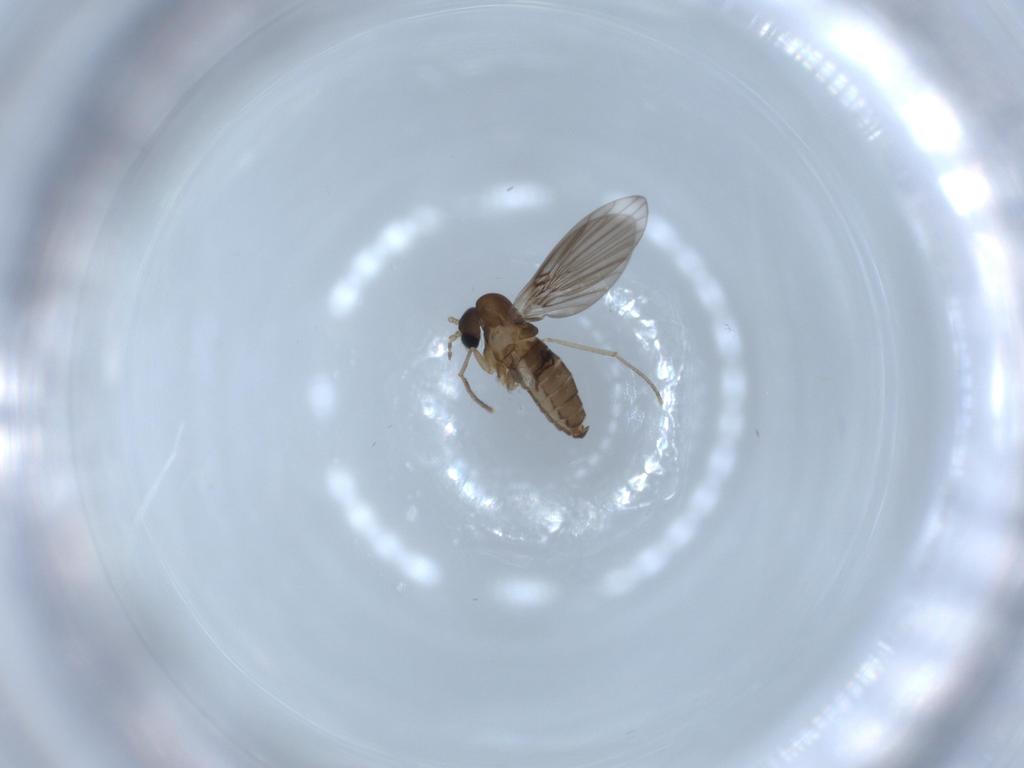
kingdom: Animalia
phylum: Arthropoda
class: Insecta
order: Diptera
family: Psychodidae
